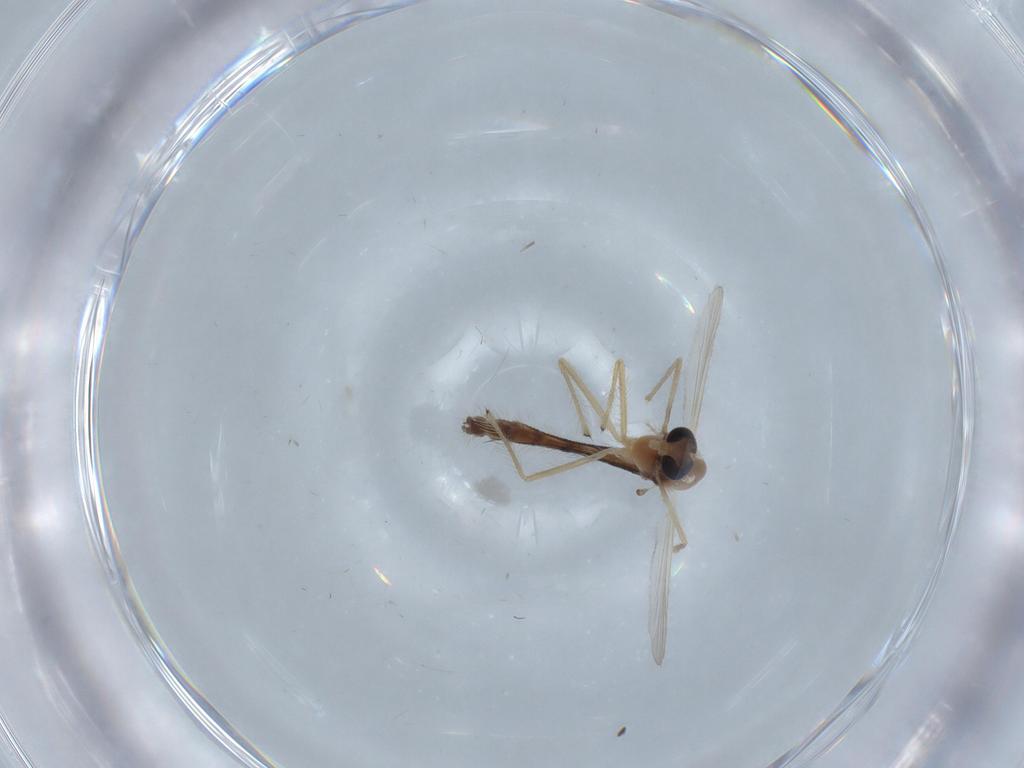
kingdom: Animalia
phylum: Arthropoda
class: Insecta
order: Diptera
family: Chironomidae
